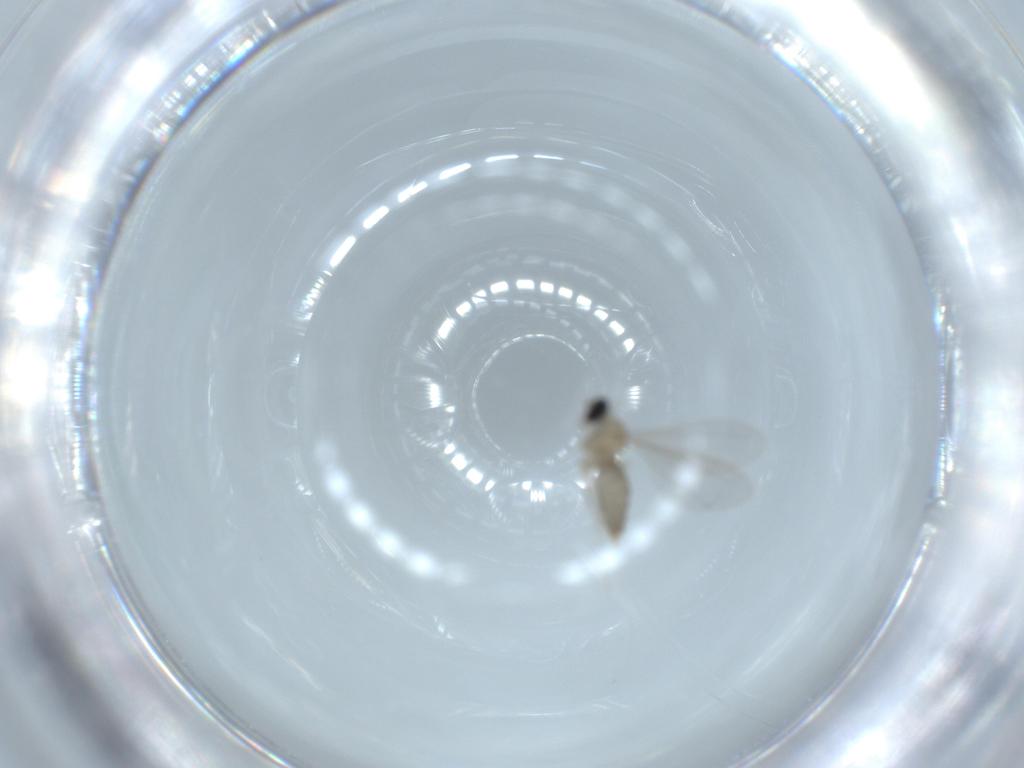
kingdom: Animalia
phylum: Arthropoda
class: Insecta
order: Diptera
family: Cecidomyiidae
